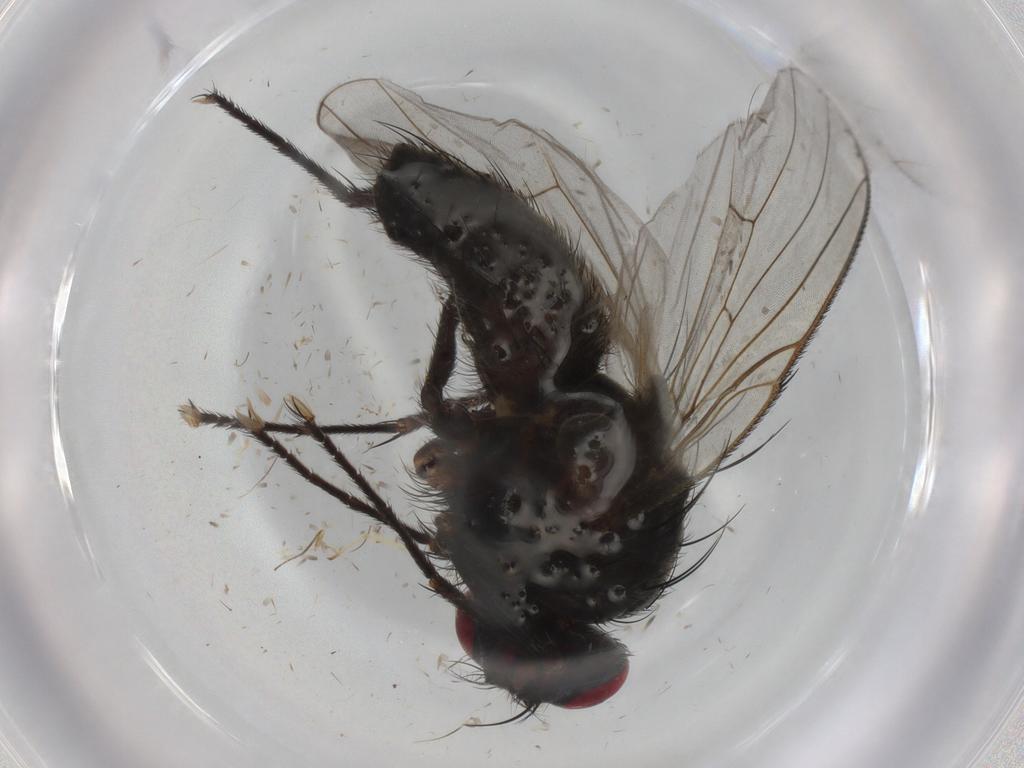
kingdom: Animalia
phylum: Arthropoda
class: Insecta
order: Diptera
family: Muscidae
